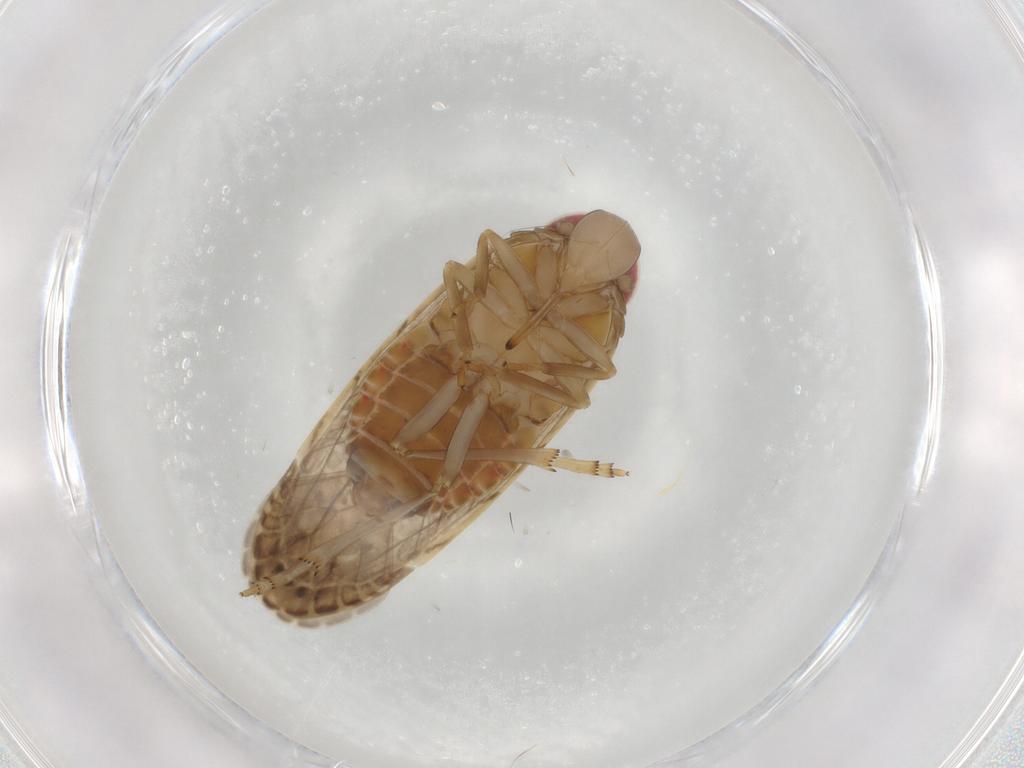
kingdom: Animalia
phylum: Arthropoda
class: Insecta
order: Hemiptera
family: Cicadellidae
